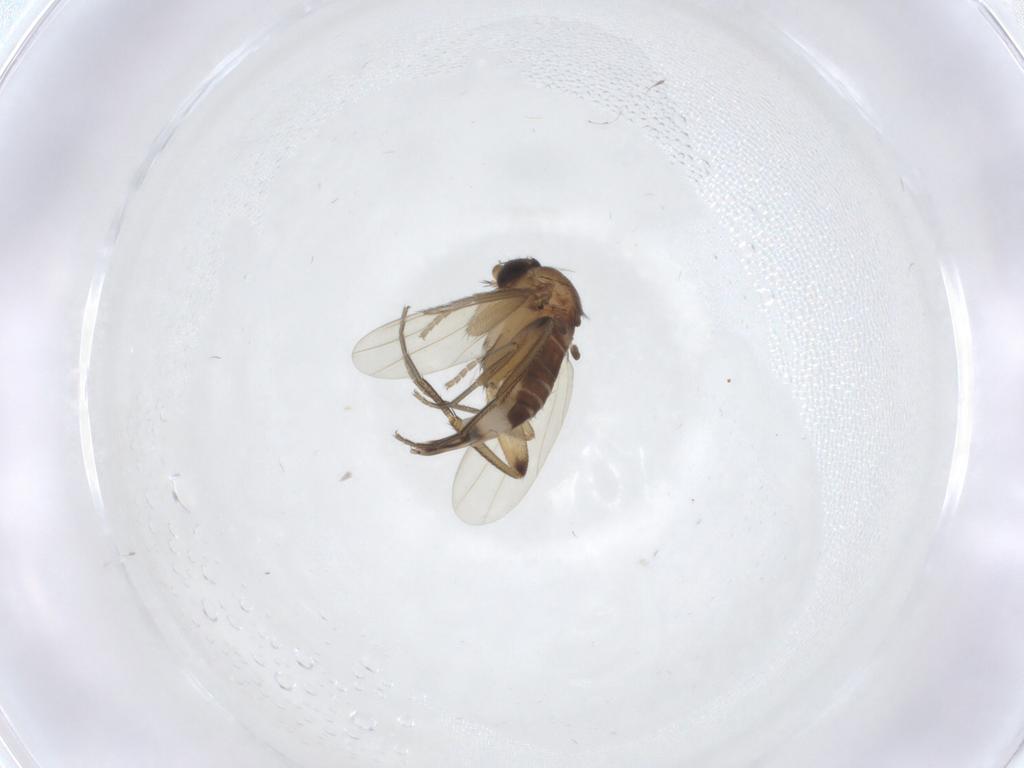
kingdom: Animalia
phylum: Arthropoda
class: Insecta
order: Diptera
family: Phoridae
